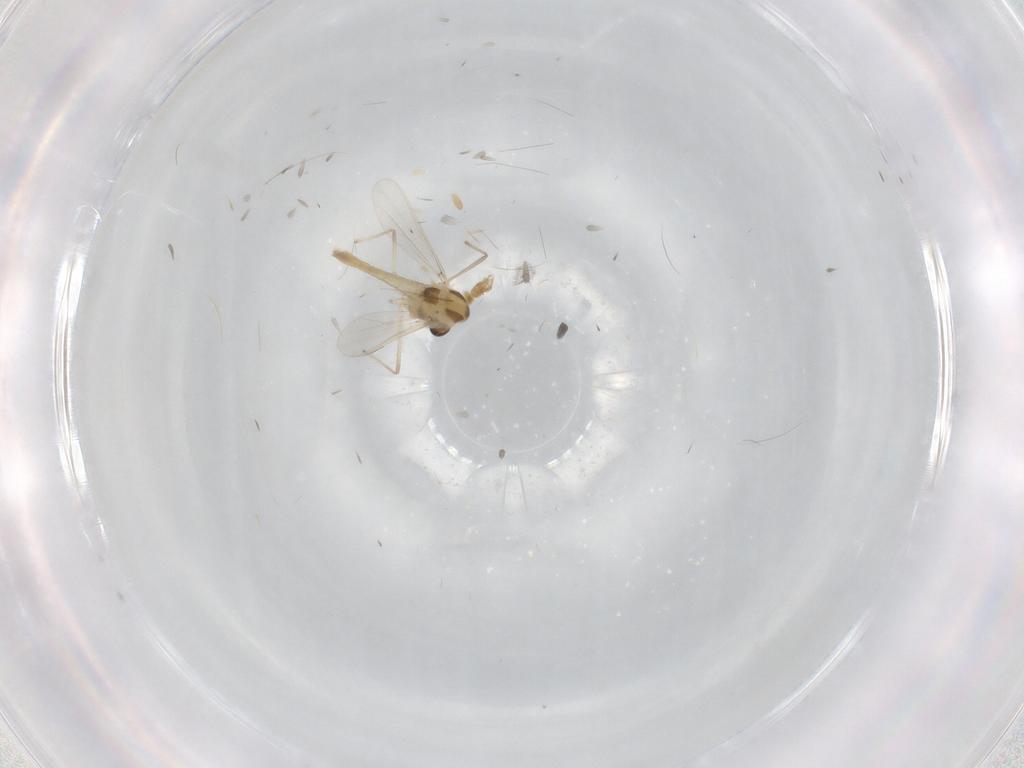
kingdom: Animalia
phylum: Arthropoda
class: Insecta
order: Diptera
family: Chironomidae
